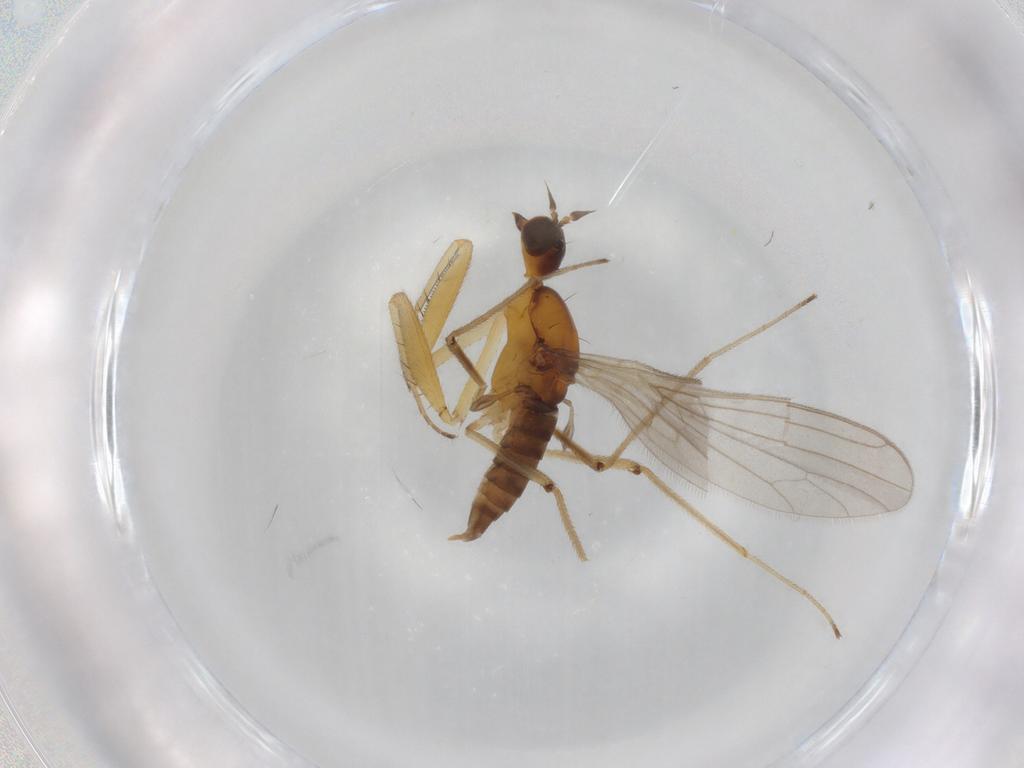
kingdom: Animalia
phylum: Arthropoda
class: Insecta
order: Diptera
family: Empididae
